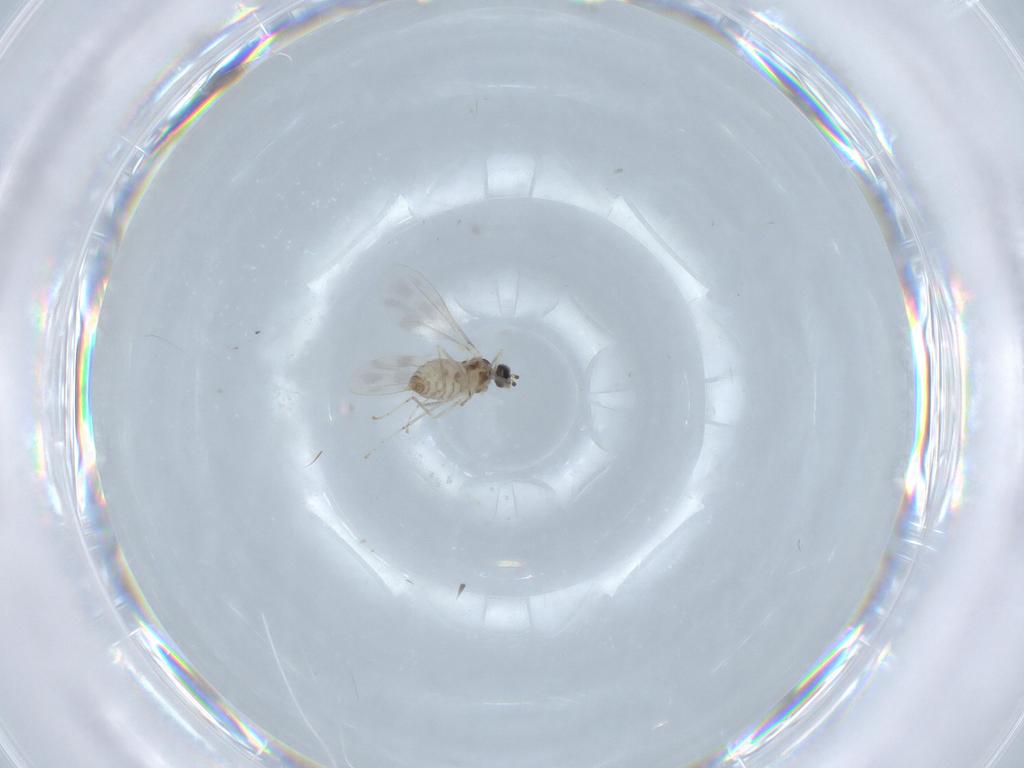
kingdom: Animalia
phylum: Arthropoda
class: Insecta
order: Diptera
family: Cecidomyiidae
